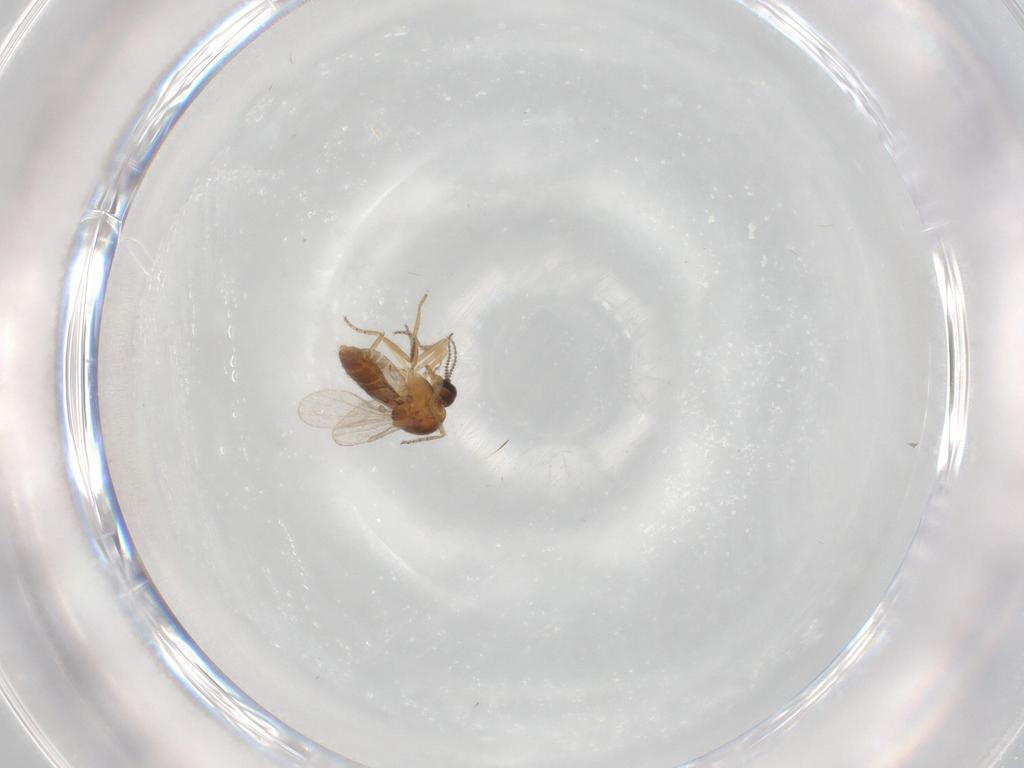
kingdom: Animalia
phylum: Arthropoda
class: Insecta
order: Diptera
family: Ceratopogonidae
